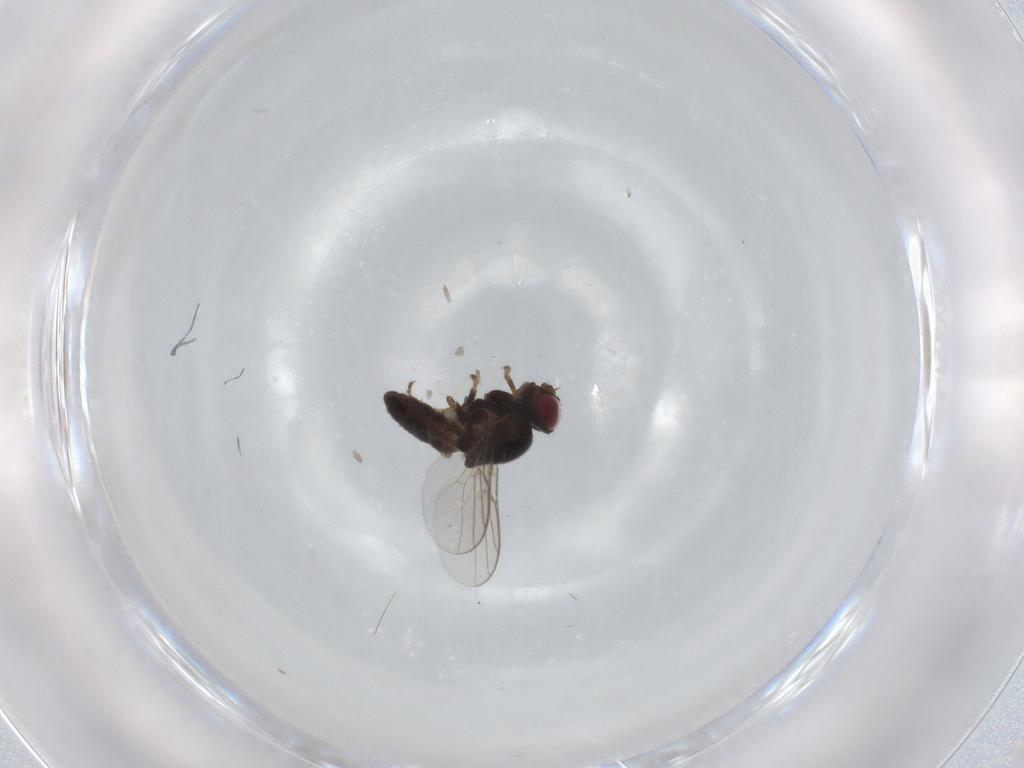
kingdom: Animalia
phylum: Arthropoda
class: Insecta
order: Diptera
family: Chloropidae
